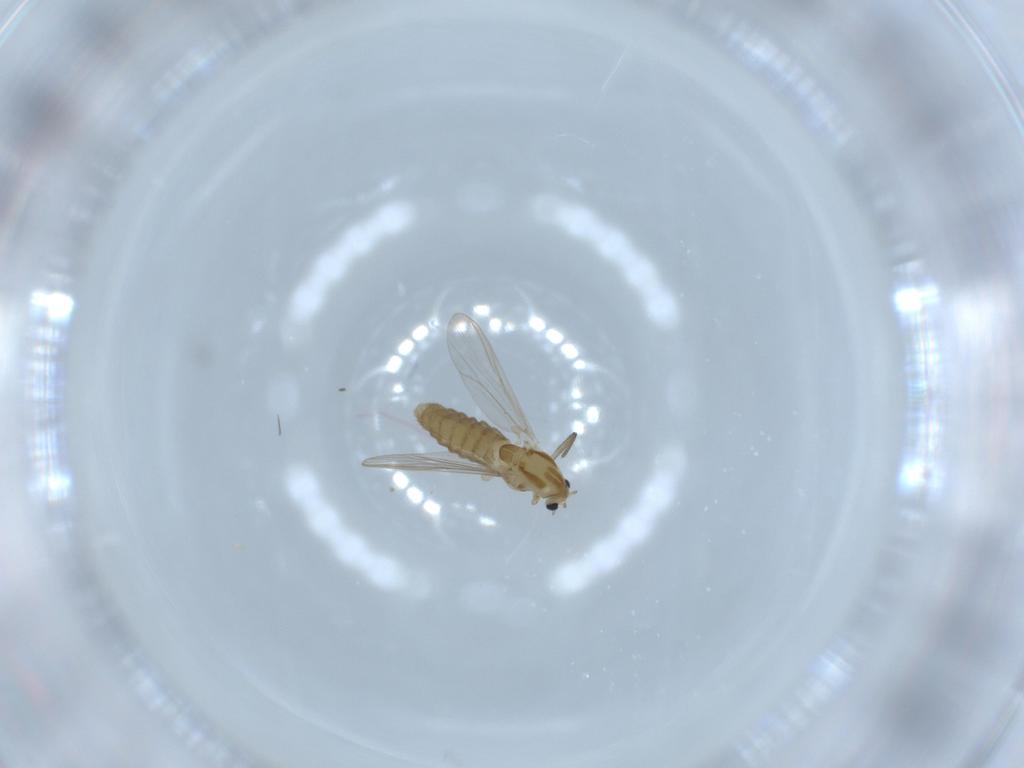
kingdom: Animalia
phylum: Arthropoda
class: Insecta
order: Diptera
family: Chironomidae
